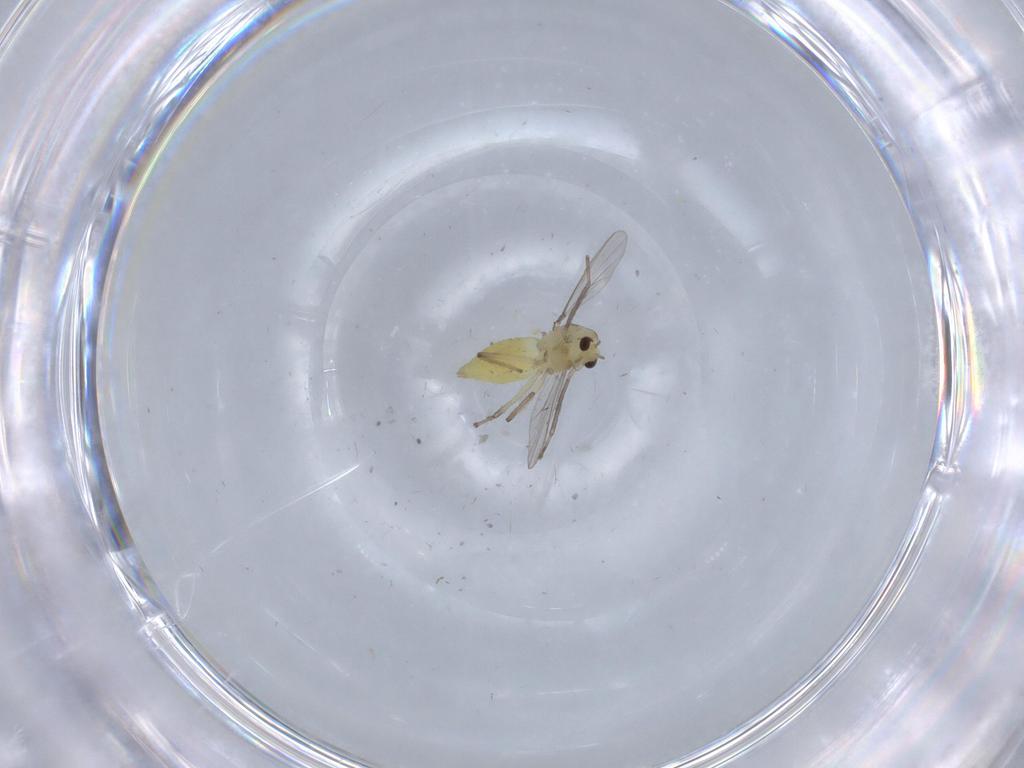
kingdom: Animalia
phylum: Arthropoda
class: Insecta
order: Diptera
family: Chironomidae
